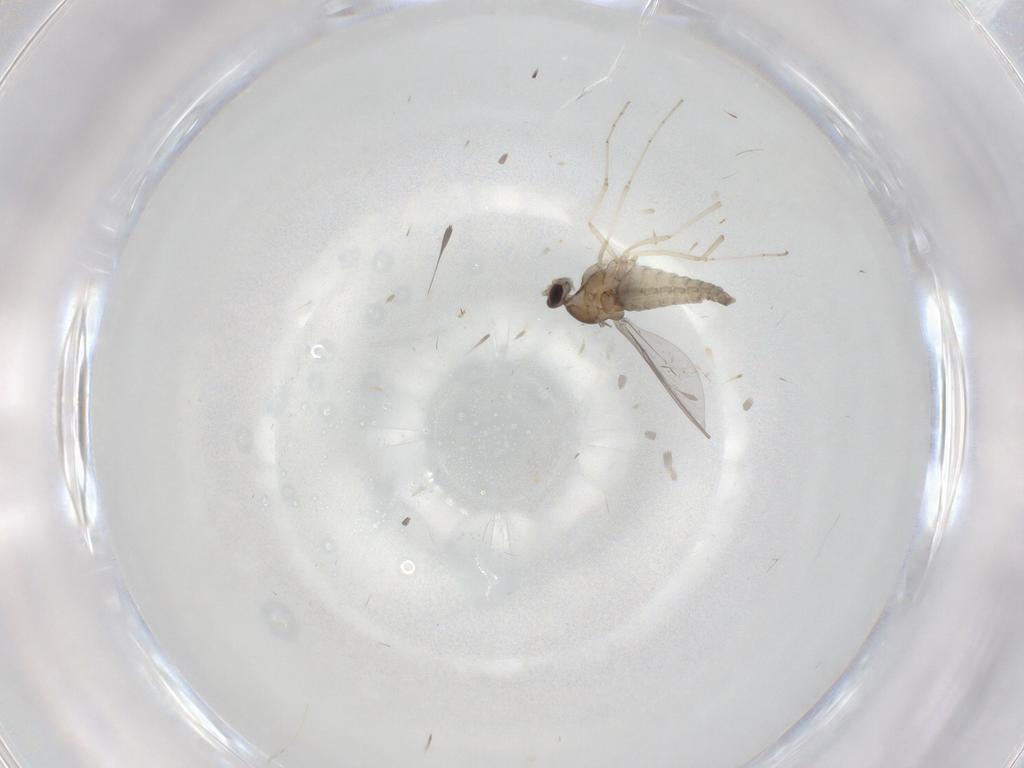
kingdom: Animalia
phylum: Arthropoda
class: Insecta
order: Diptera
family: Cecidomyiidae
